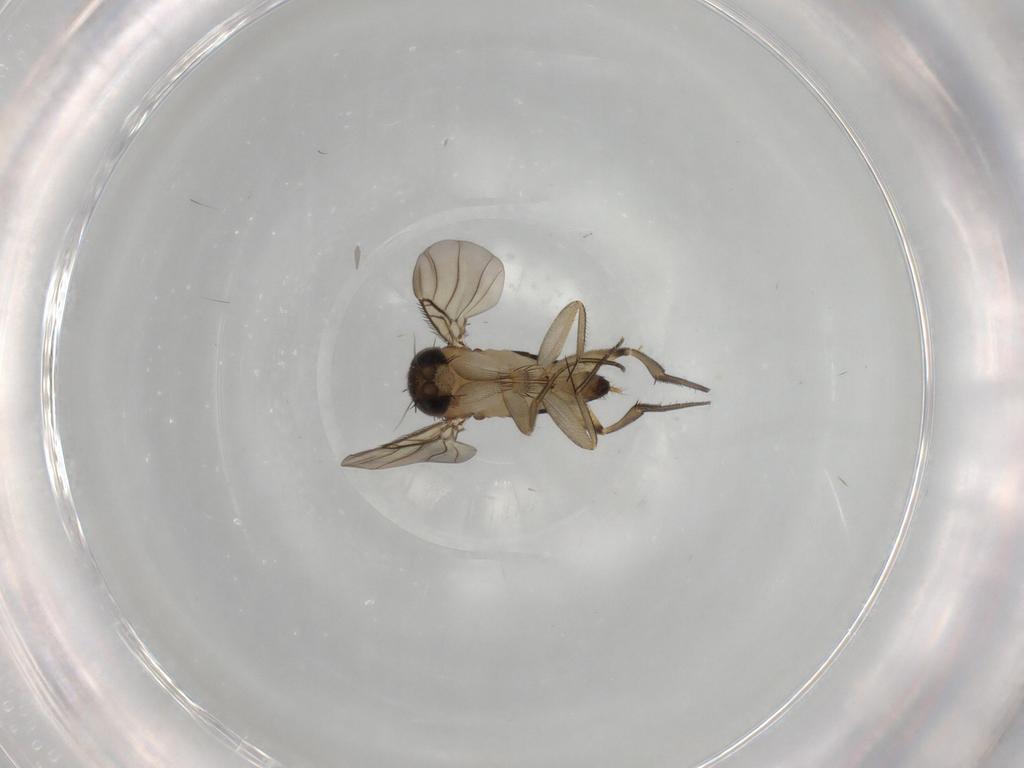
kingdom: Animalia
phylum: Arthropoda
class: Insecta
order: Diptera
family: Phoridae
